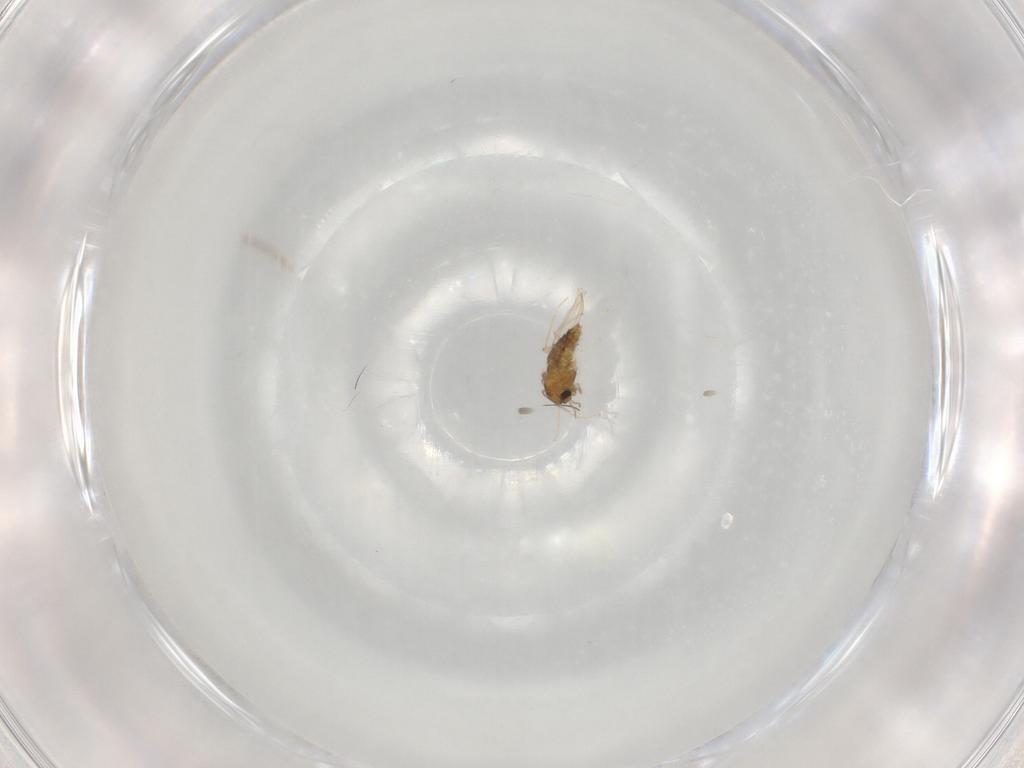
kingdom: Animalia
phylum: Arthropoda
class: Insecta
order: Diptera
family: Chironomidae
